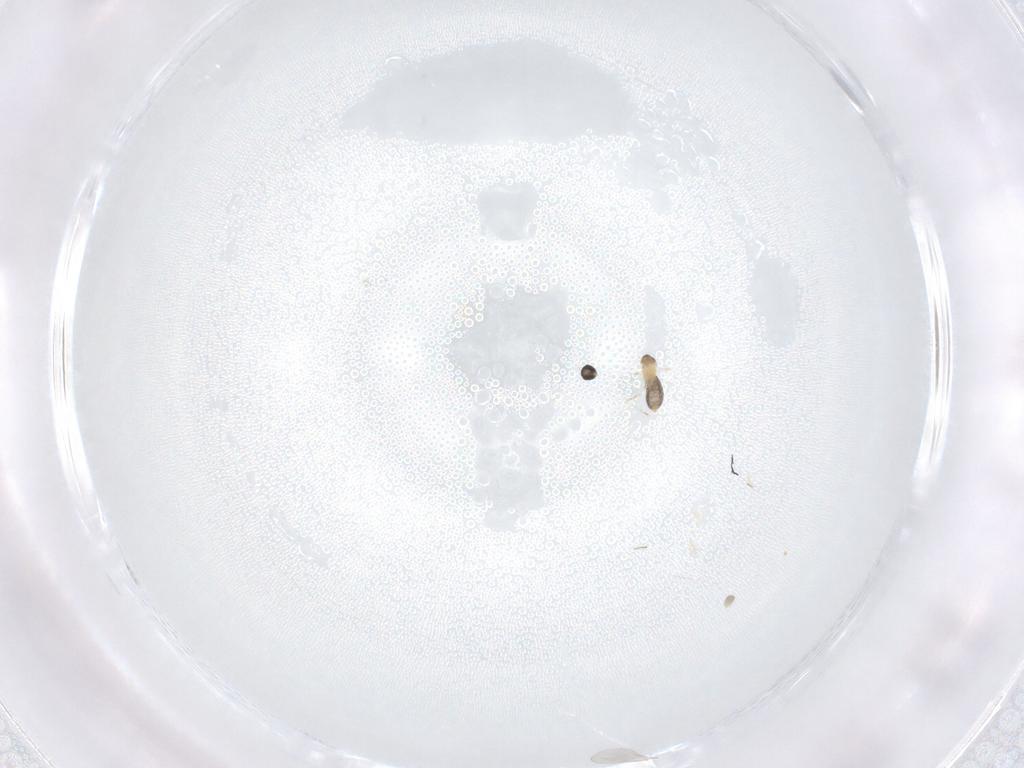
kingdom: Animalia
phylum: Arthropoda
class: Insecta
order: Diptera
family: Cecidomyiidae
